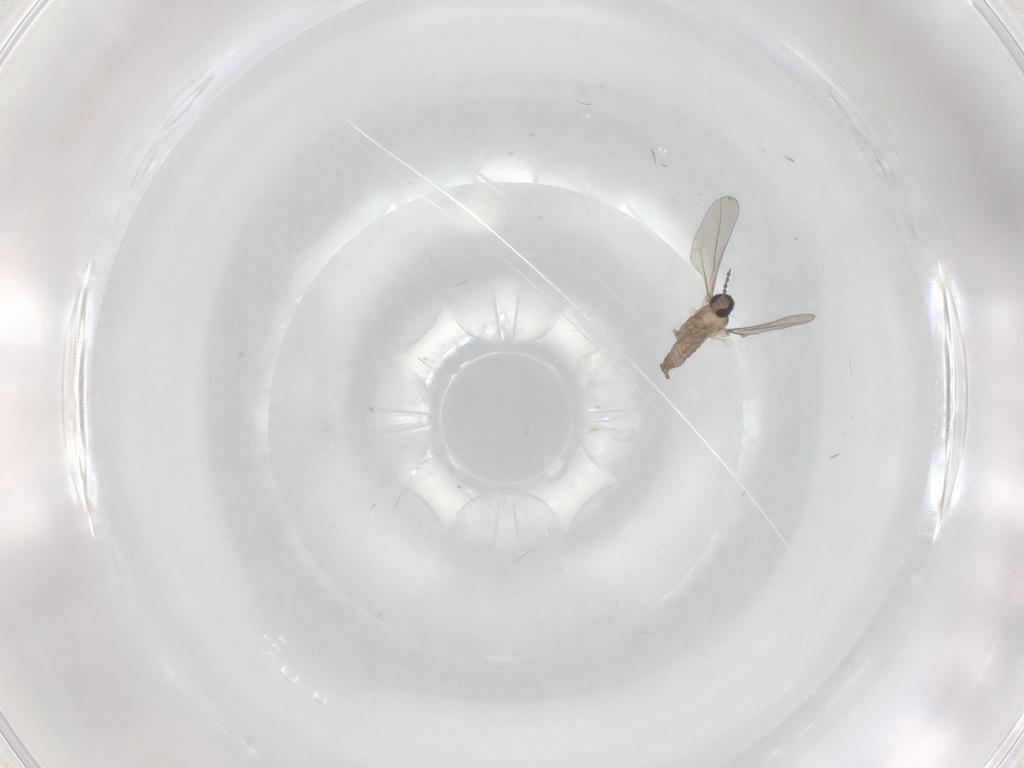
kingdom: Animalia
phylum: Arthropoda
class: Insecta
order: Diptera
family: Cecidomyiidae
